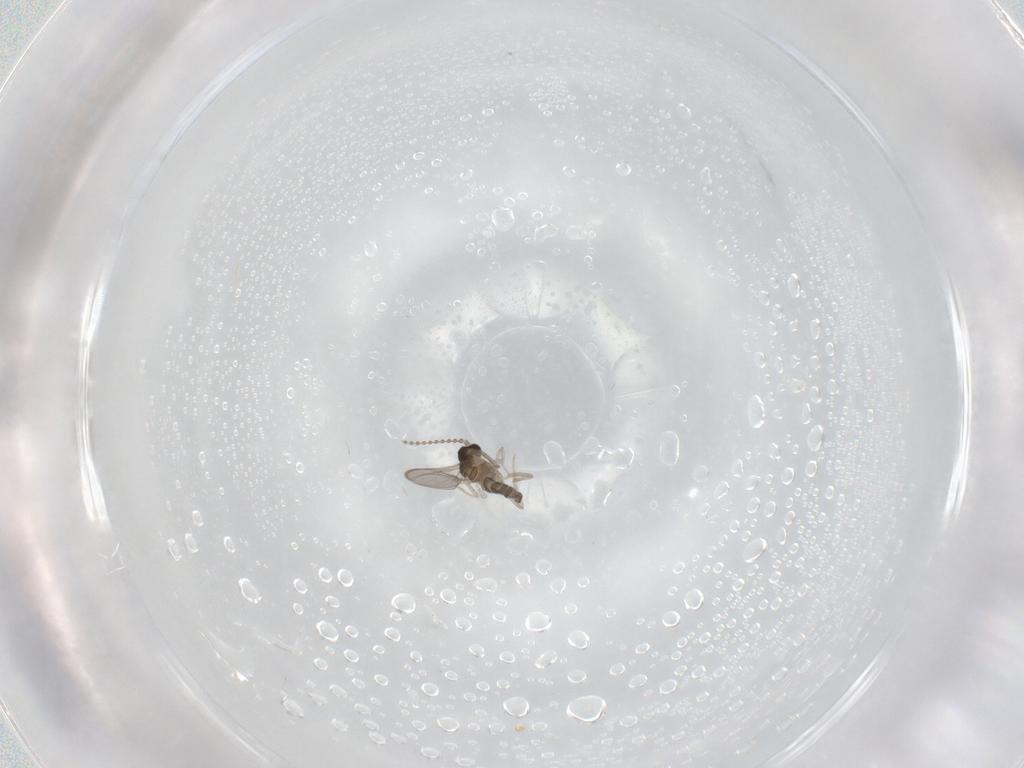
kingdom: Animalia
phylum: Arthropoda
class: Insecta
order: Diptera
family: Cecidomyiidae
